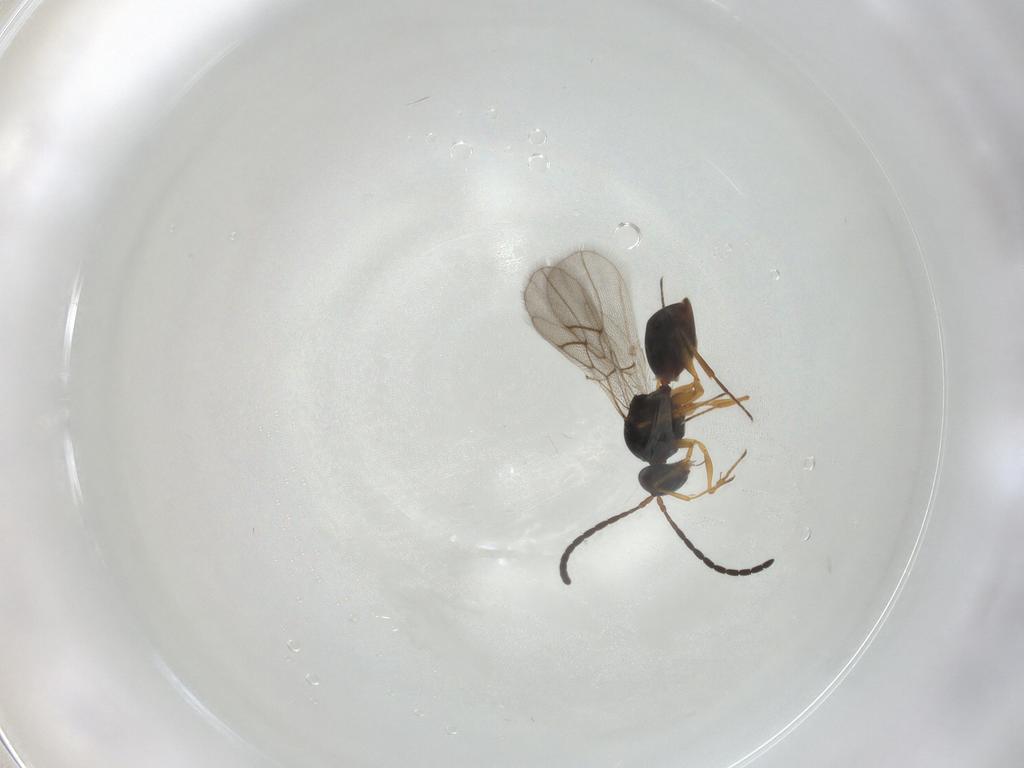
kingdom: Animalia
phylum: Arthropoda
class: Insecta
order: Hymenoptera
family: Figitidae
